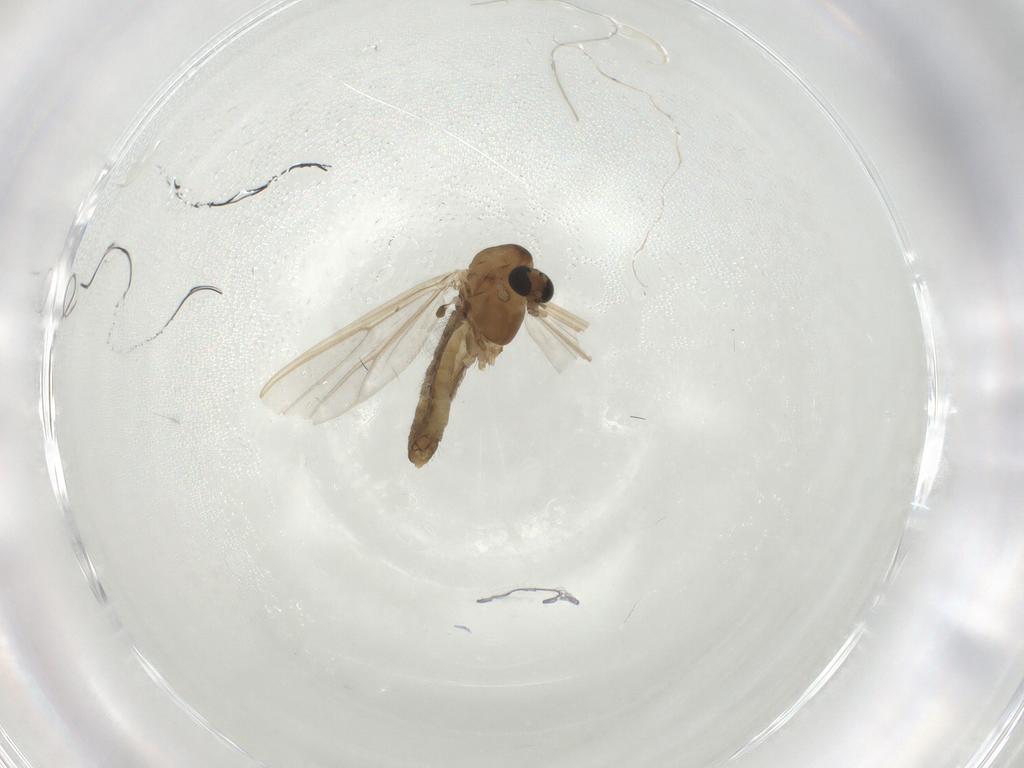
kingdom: Animalia
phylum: Arthropoda
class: Insecta
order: Diptera
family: Chironomidae
